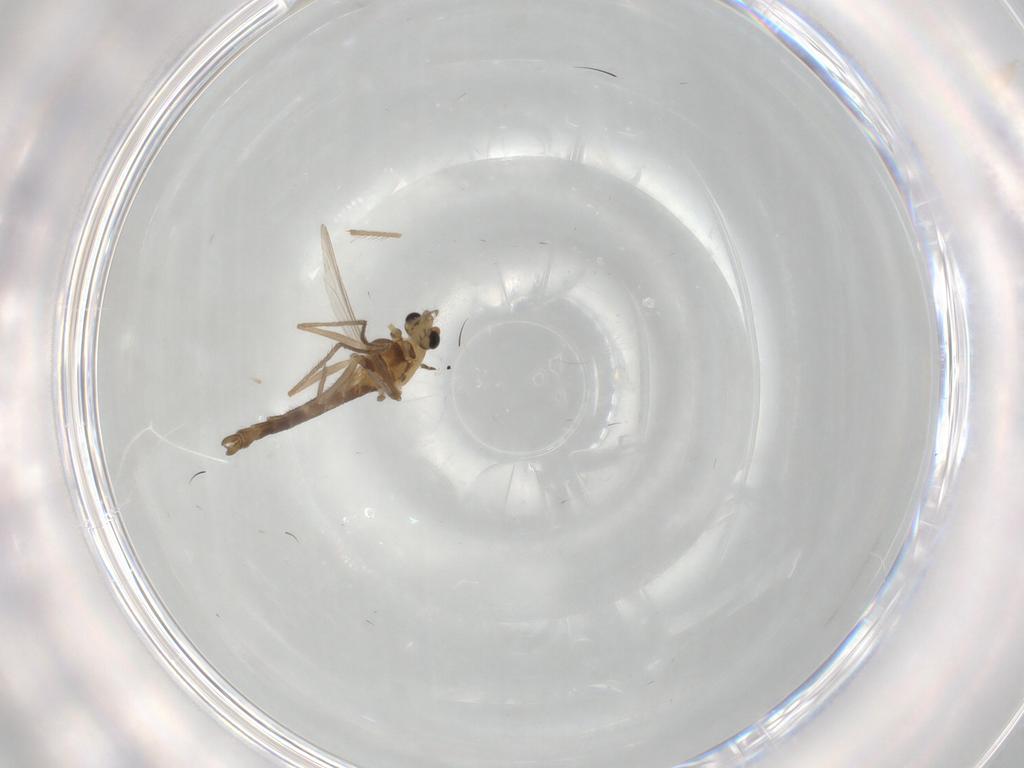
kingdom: Animalia
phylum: Arthropoda
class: Insecta
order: Diptera
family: Chironomidae
